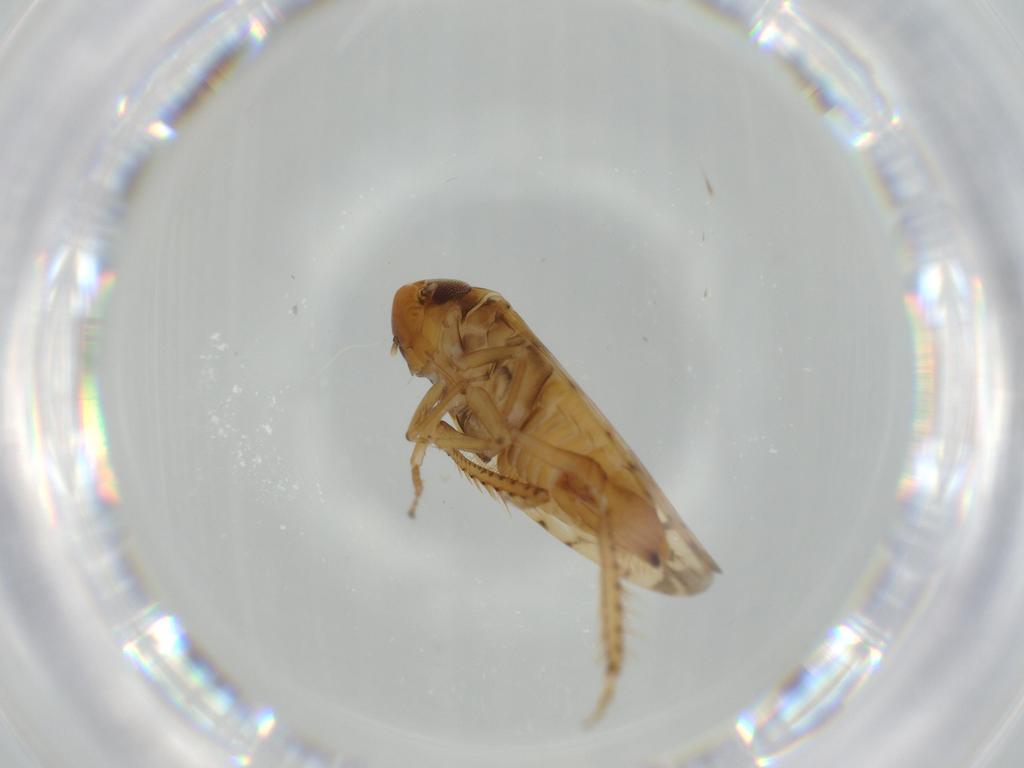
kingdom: Animalia
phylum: Arthropoda
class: Insecta
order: Hemiptera
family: Cicadellidae
